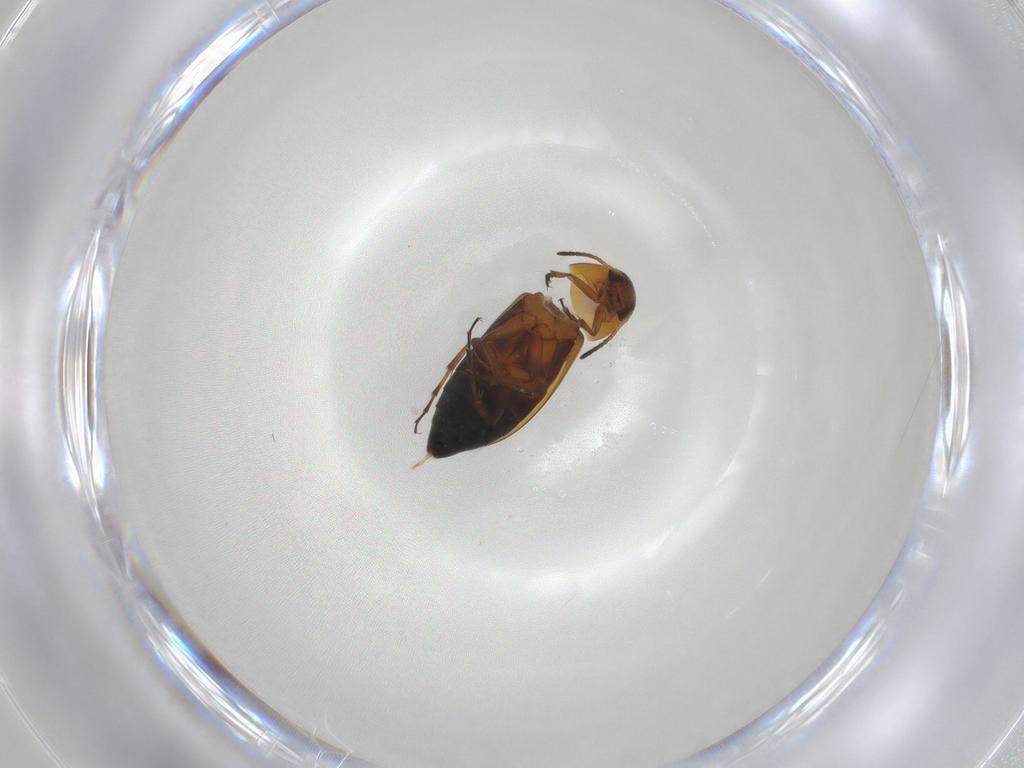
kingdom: Animalia
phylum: Arthropoda
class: Insecta
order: Coleoptera
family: Scraptiidae
